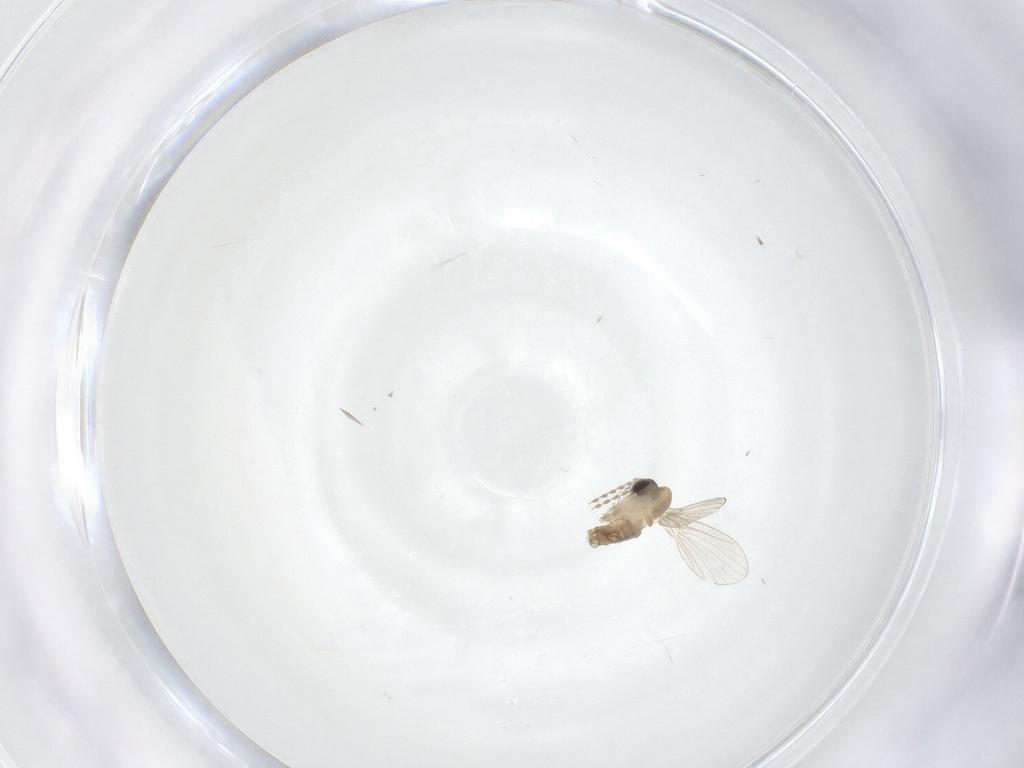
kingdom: Animalia
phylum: Arthropoda
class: Insecta
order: Diptera
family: Psychodidae
